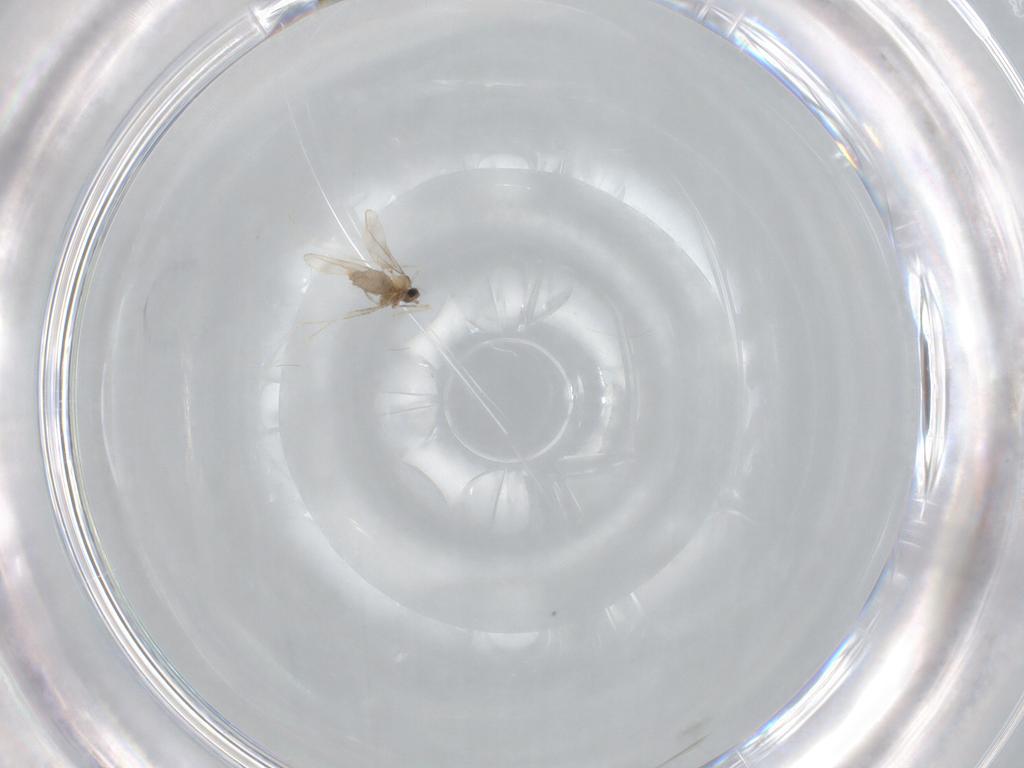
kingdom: Animalia
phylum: Arthropoda
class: Insecta
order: Diptera
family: Cecidomyiidae
